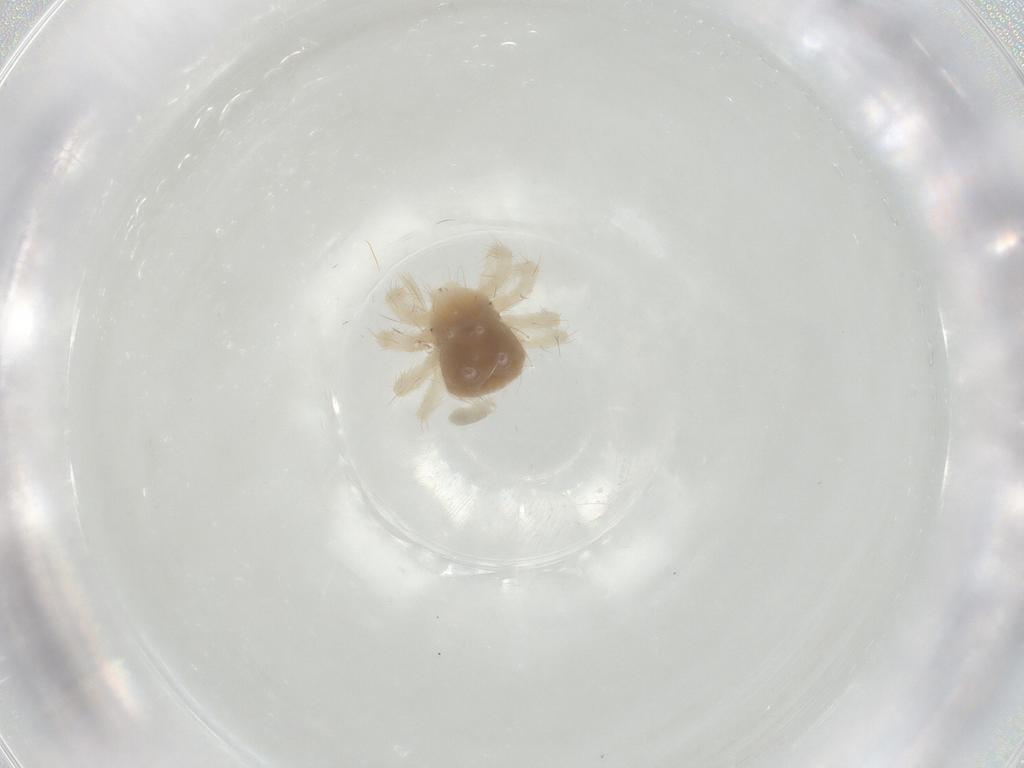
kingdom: Animalia
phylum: Arthropoda
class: Arachnida
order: Trombidiformes
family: Eupodidae
